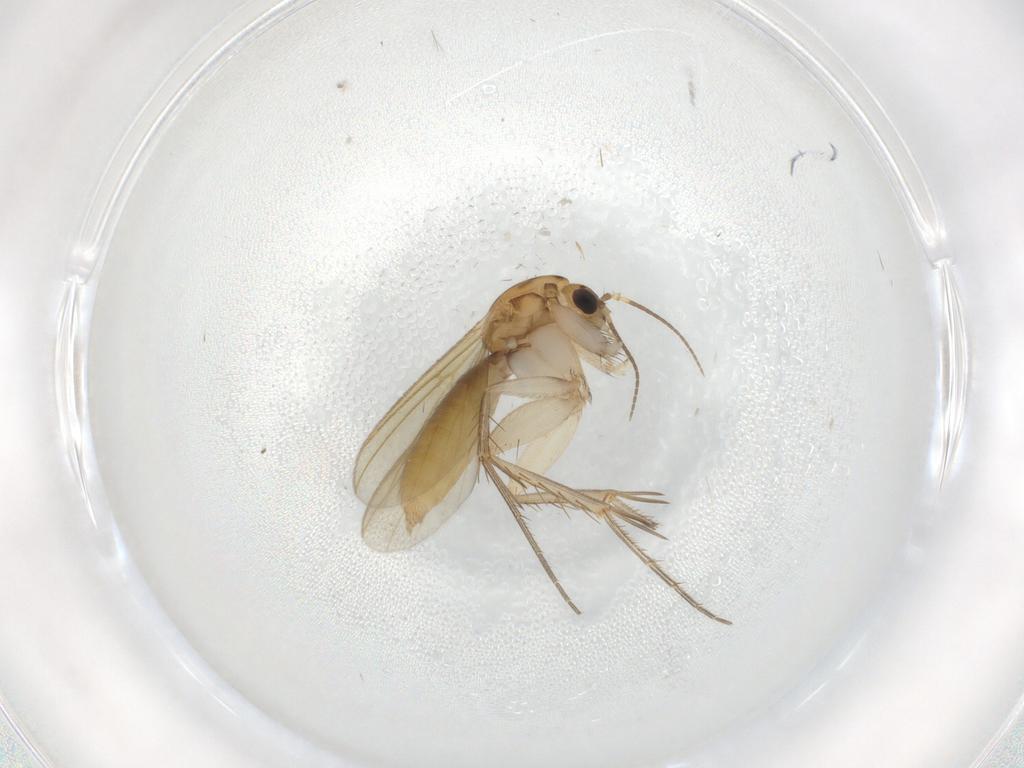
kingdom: Animalia
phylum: Arthropoda
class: Insecta
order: Diptera
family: Mycetophilidae
